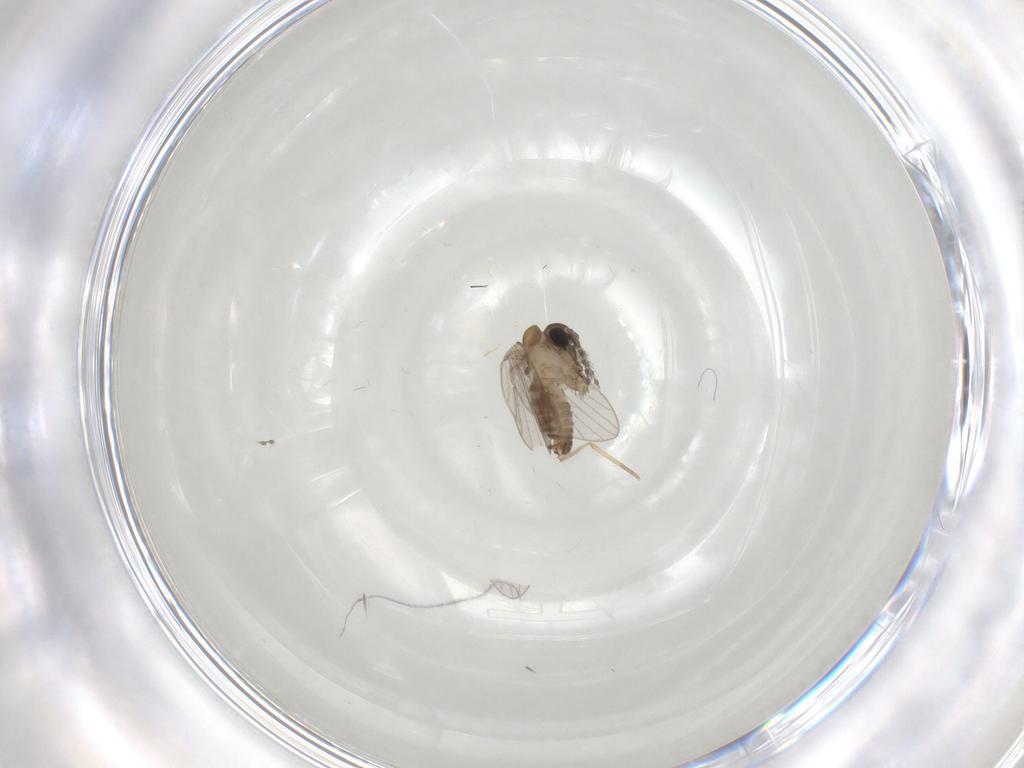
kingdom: Animalia
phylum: Arthropoda
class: Insecta
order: Diptera
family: Chironomidae
